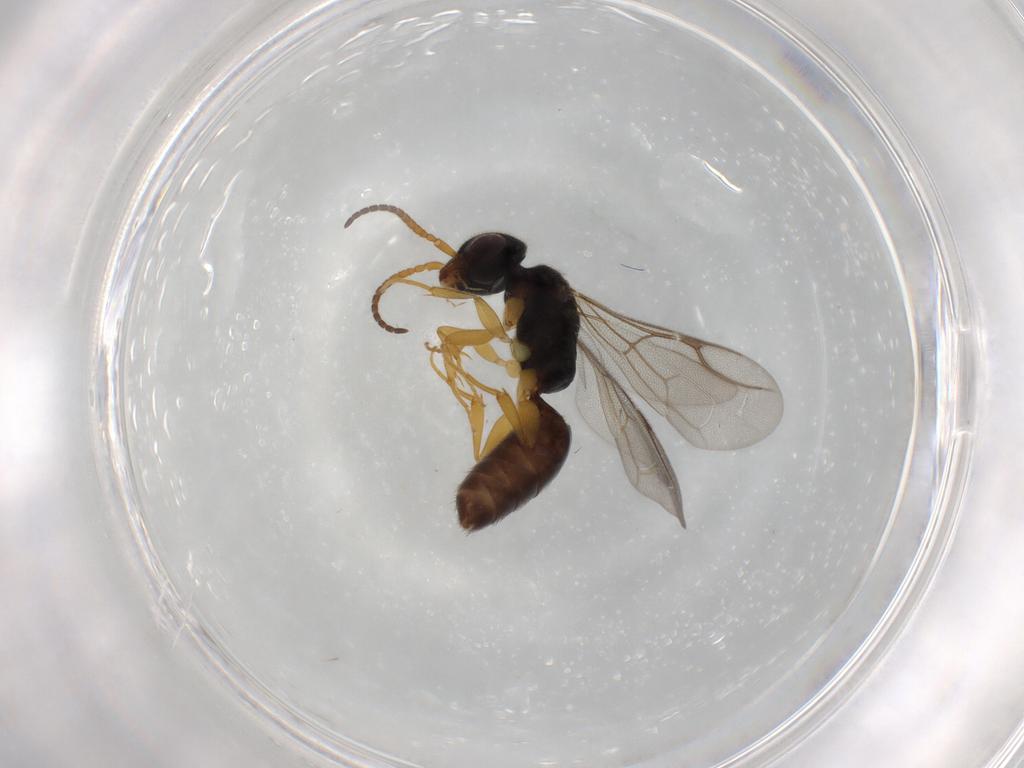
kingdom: Animalia
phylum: Arthropoda
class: Insecta
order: Hymenoptera
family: Bethylidae
